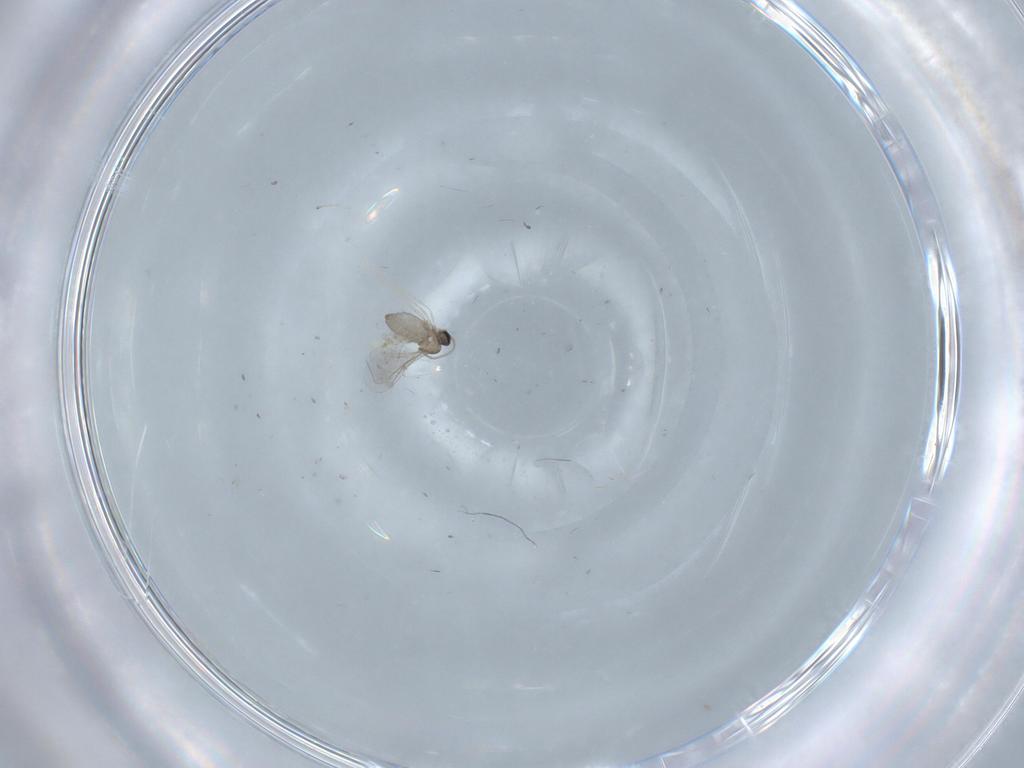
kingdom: Animalia
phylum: Arthropoda
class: Insecta
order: Diptera
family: Cecidomyiidae
